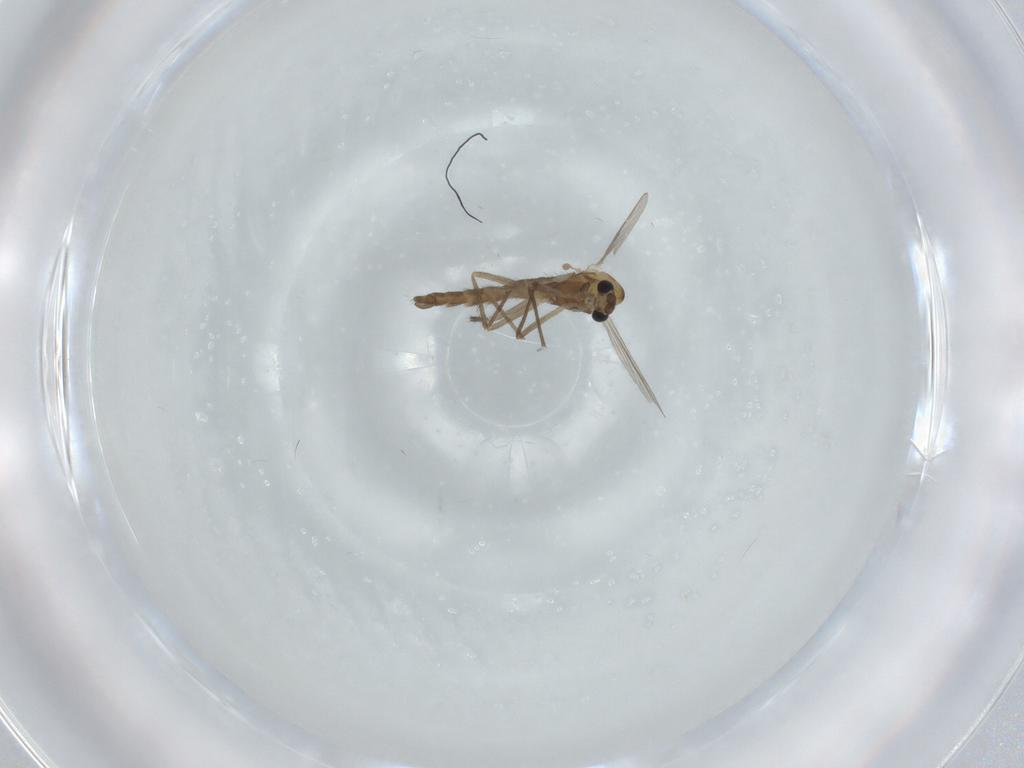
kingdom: Animalia
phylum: Arthropoda
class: Insecta
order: Diptera
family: Chironomidae
